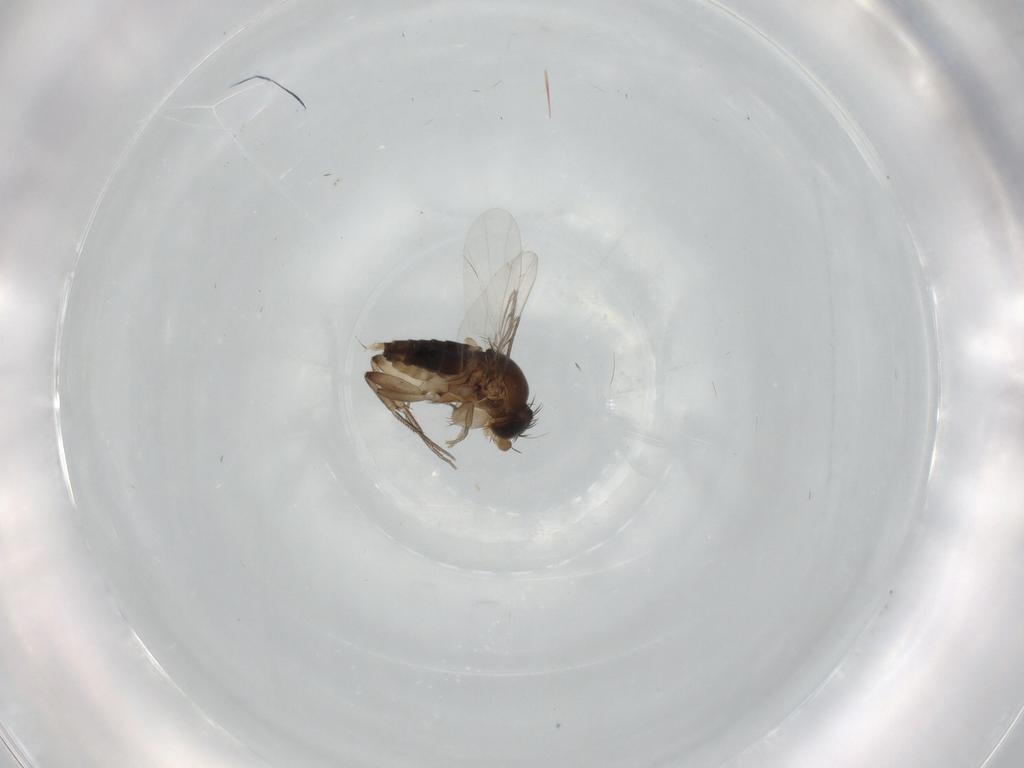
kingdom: Animalia
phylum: Arthropoda
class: Insecta
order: Diptera
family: Phoridae
